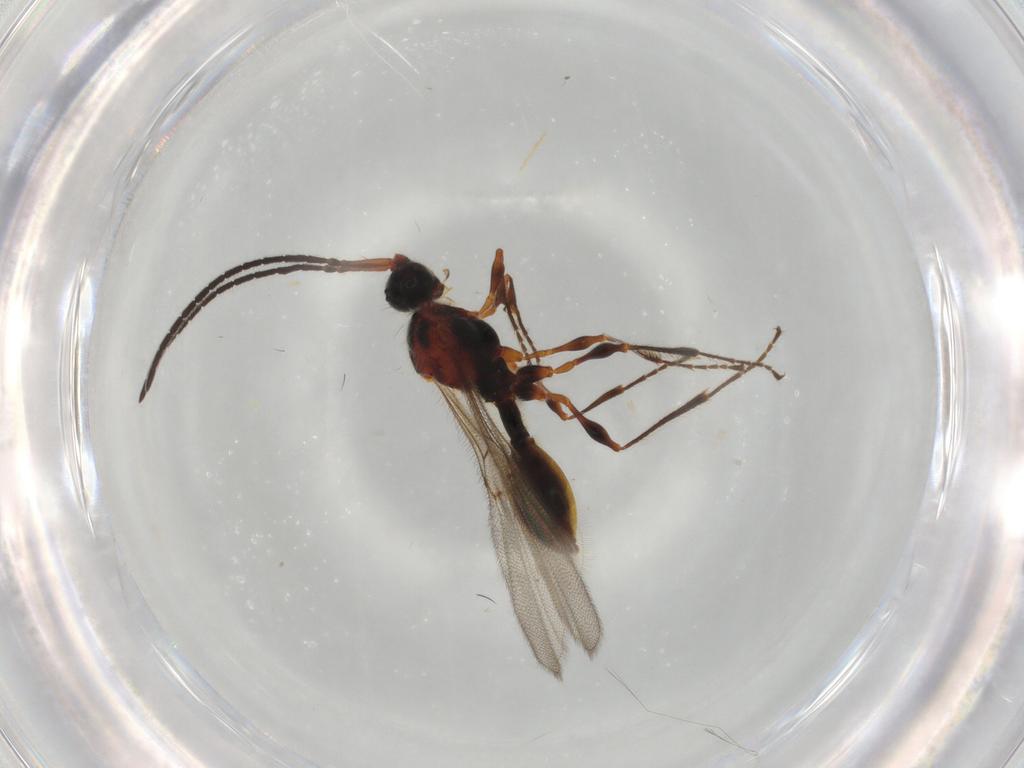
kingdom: Animalia
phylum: Arthropoda
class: Insecta
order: Hymenoptera
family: Diapriidae
